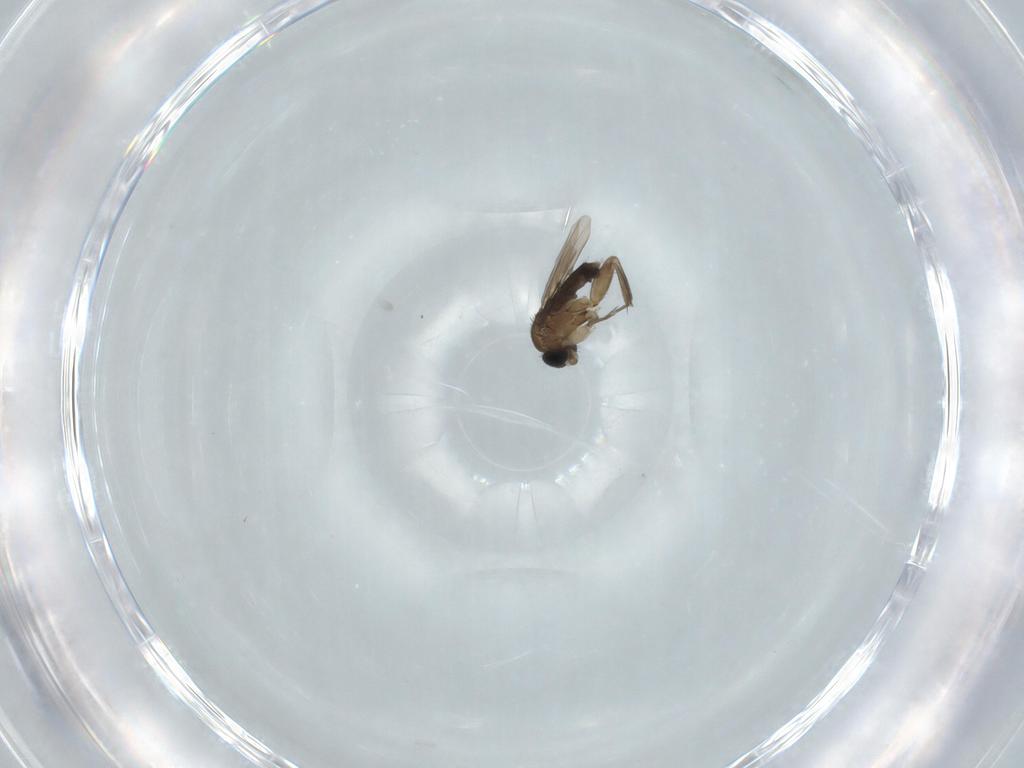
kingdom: Animalia
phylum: Arthropoda
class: Insecta
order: Diptera
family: Phoridae
